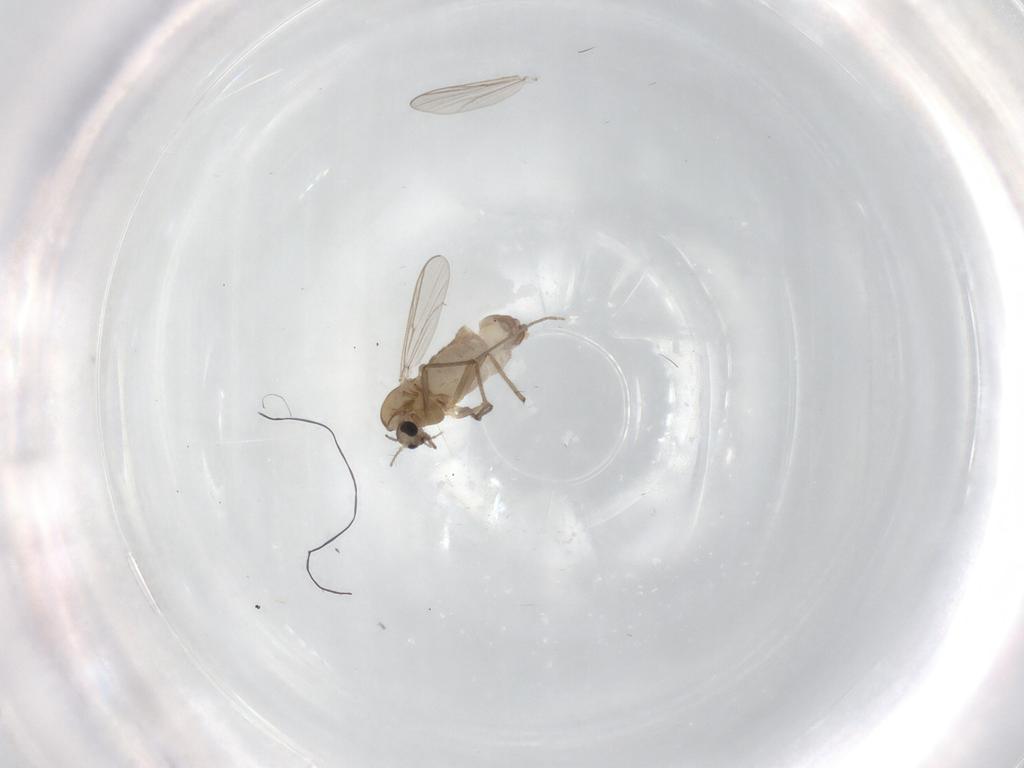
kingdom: Animalia
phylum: Arthropoda
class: Insecta
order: Diptera
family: Chironomidae
